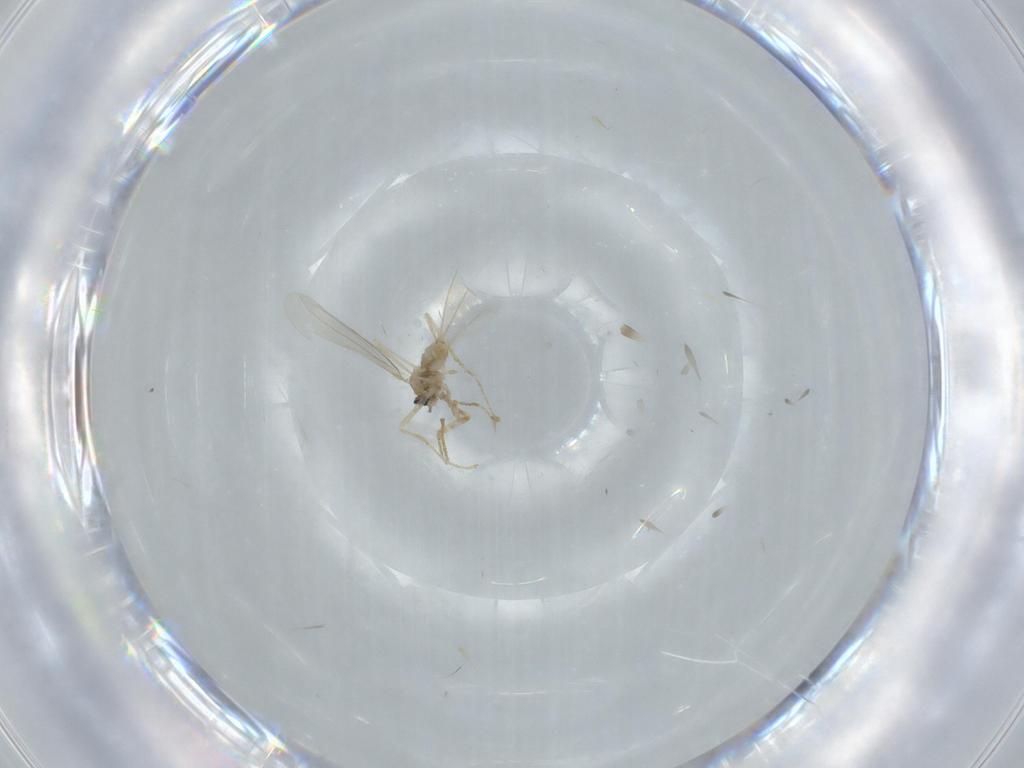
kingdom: Animalia
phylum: Arthropoda
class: Insecta
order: Diptera
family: Cecidomyiidae
